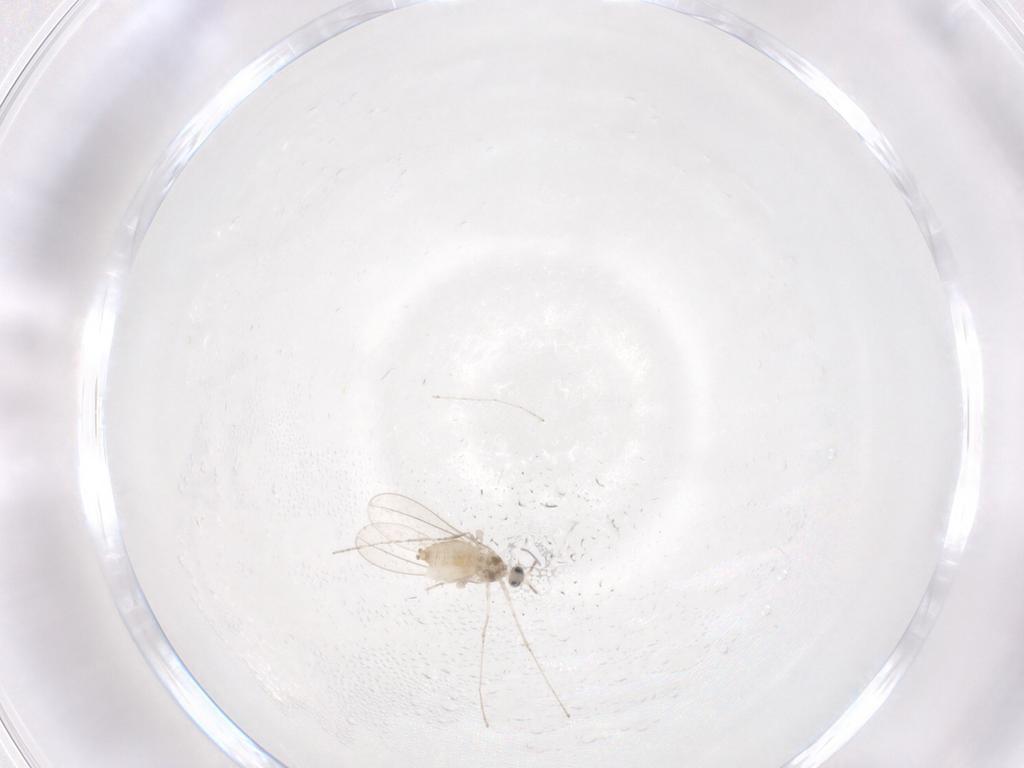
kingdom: Animalia
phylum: Arthropoda
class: Insecta
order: Diptera
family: Cecidomyiidae
